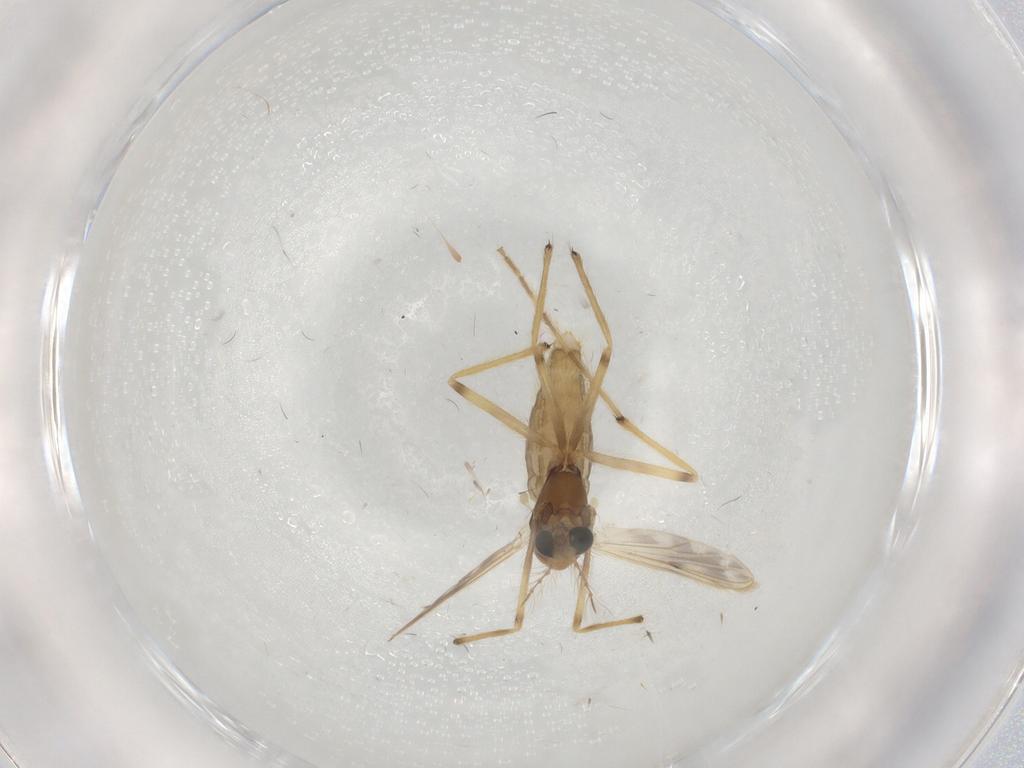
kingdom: Animalia
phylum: Arthropoda
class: Insecta
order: Diptera
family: Chironomidae
